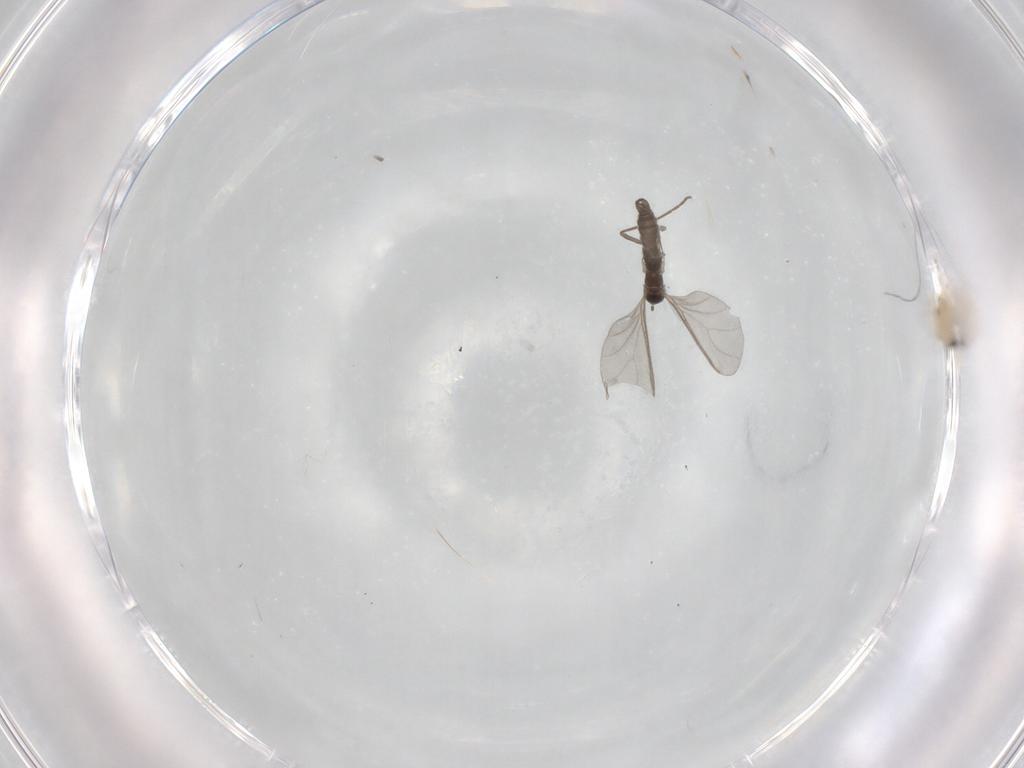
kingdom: Animalia
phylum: Arthropoda
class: Insecta
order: Diptera
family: Sciaridae
